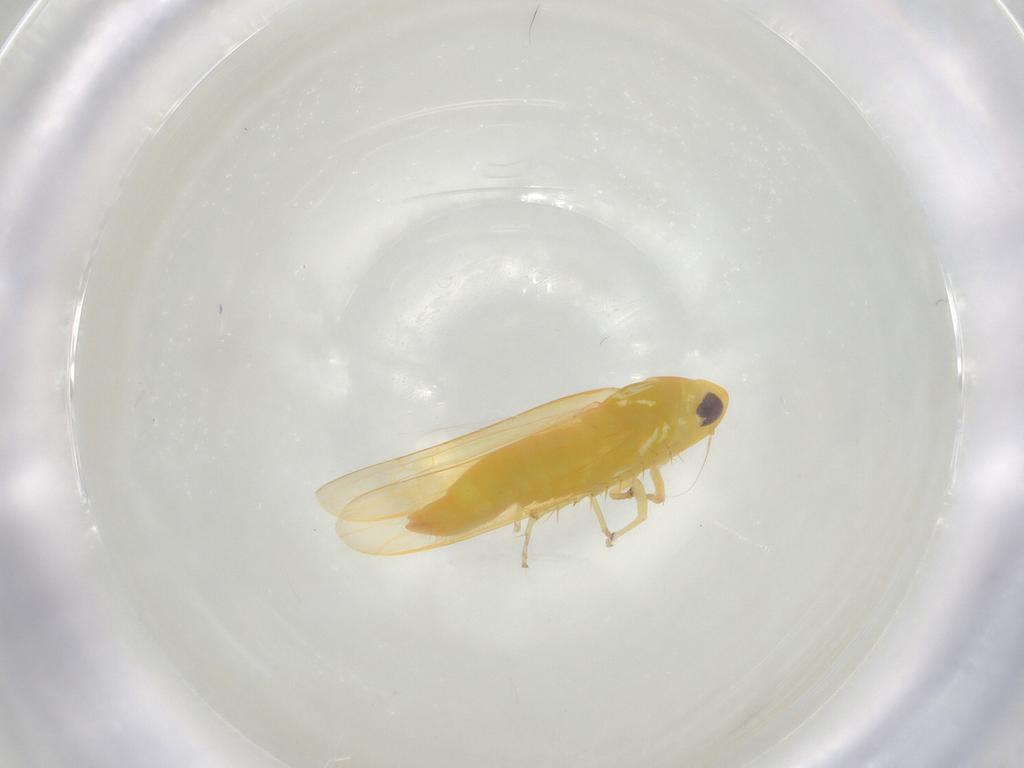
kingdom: Animalia
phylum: Arthropoda
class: Insecta
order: Hemiptera
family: Cicadellidae
